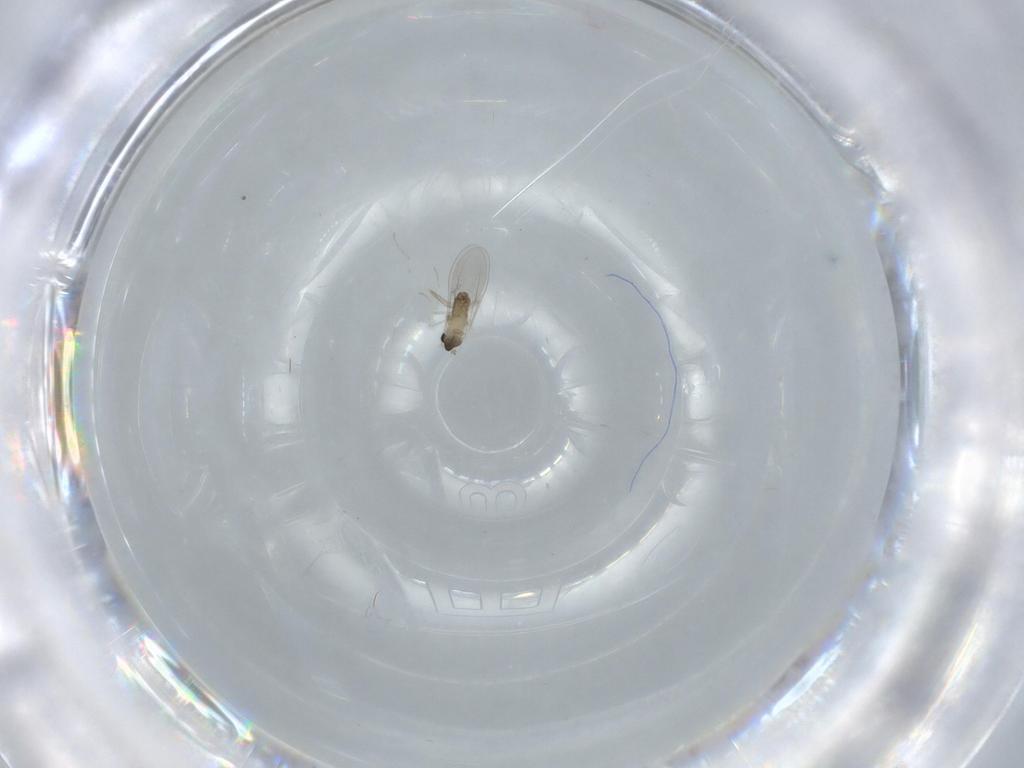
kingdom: Animalia
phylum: Arthropoda
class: Insecta
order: Diptera
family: Cecidomyiidae
